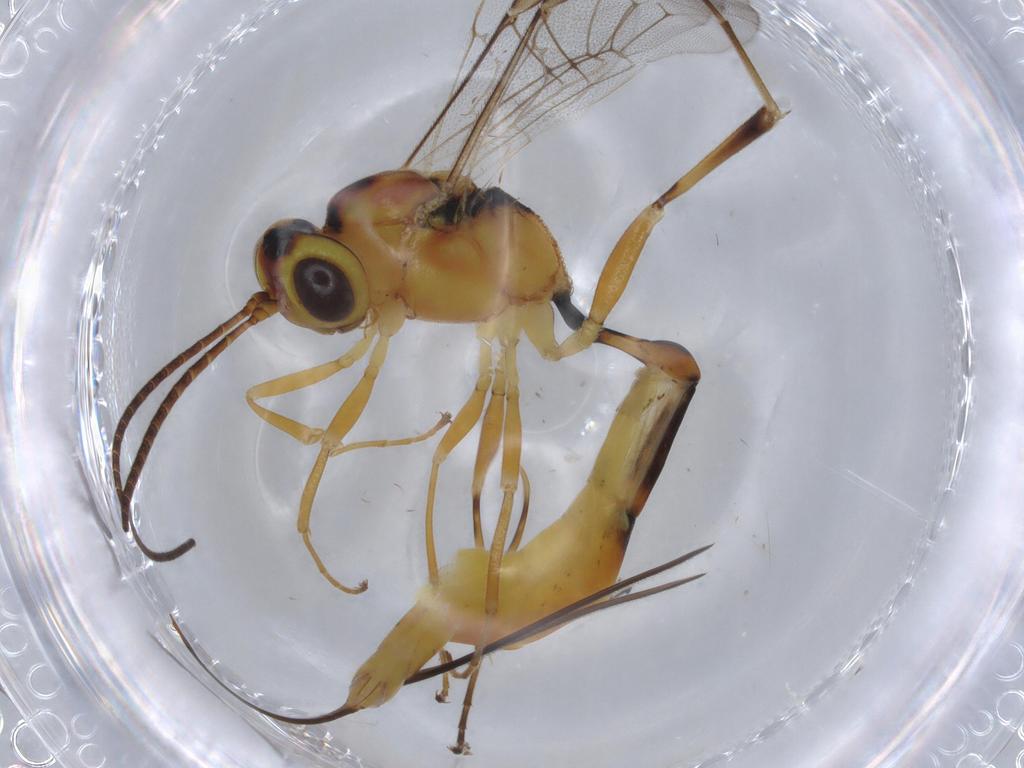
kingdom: Animalia
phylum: Arthropoda
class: Insecta
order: Hymenoptera
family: Ichneumonidae
